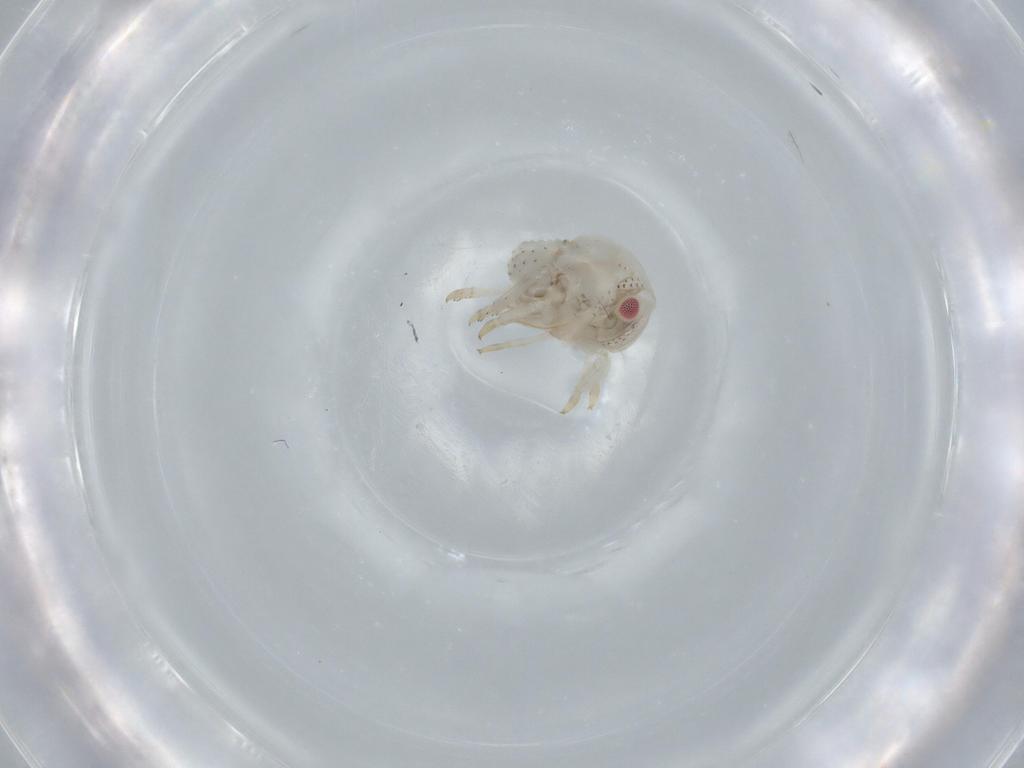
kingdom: Animalia
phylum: Arthropoda
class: Insecta
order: Hemiptera
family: Acanaloniidae
